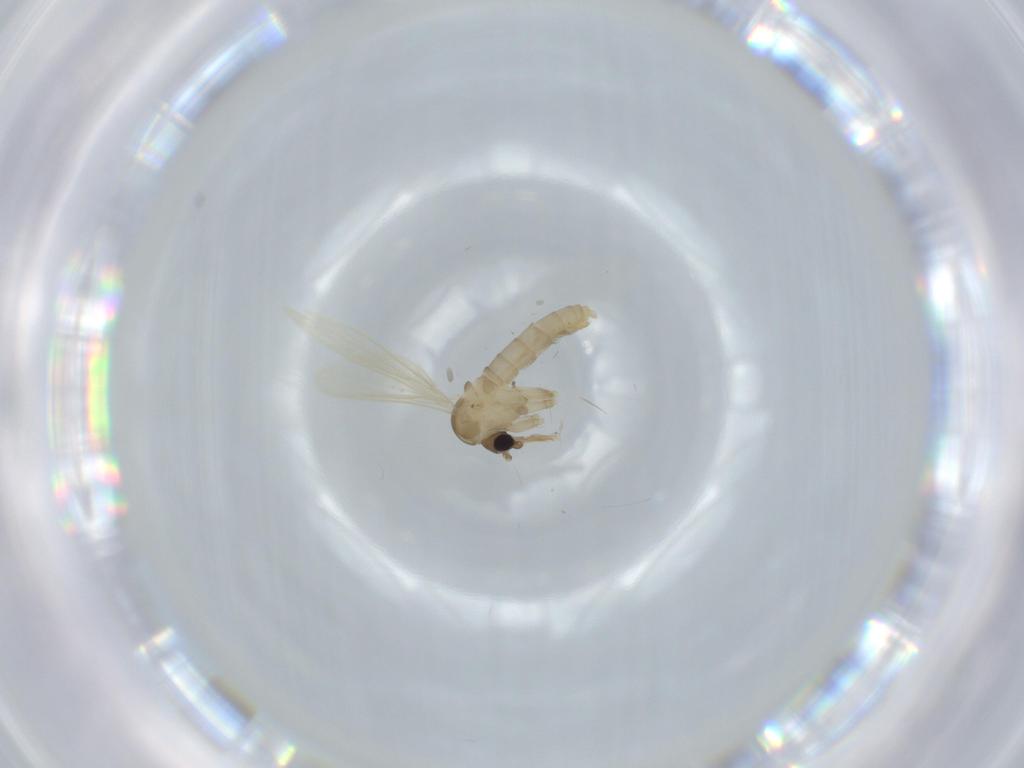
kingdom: Animalia
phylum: Arthropoda
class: Insecta
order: Diptera
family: Psychodidae
